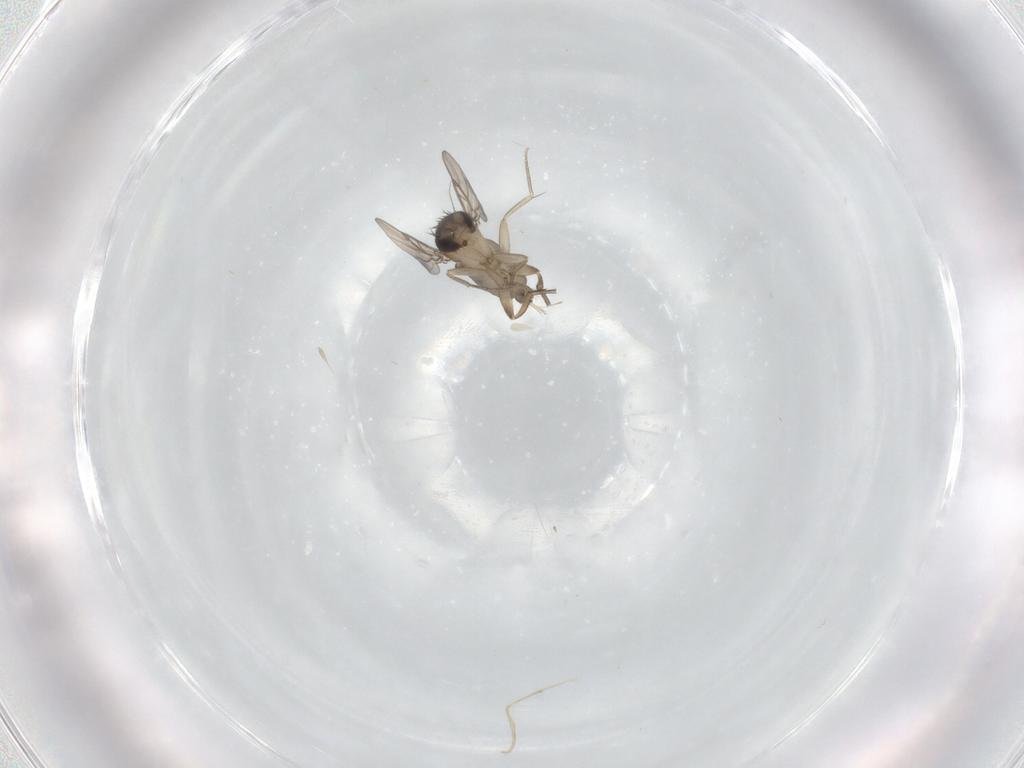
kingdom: Animalia
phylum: Arthropoda
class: Insecta
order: Diptera
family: Phoridae
